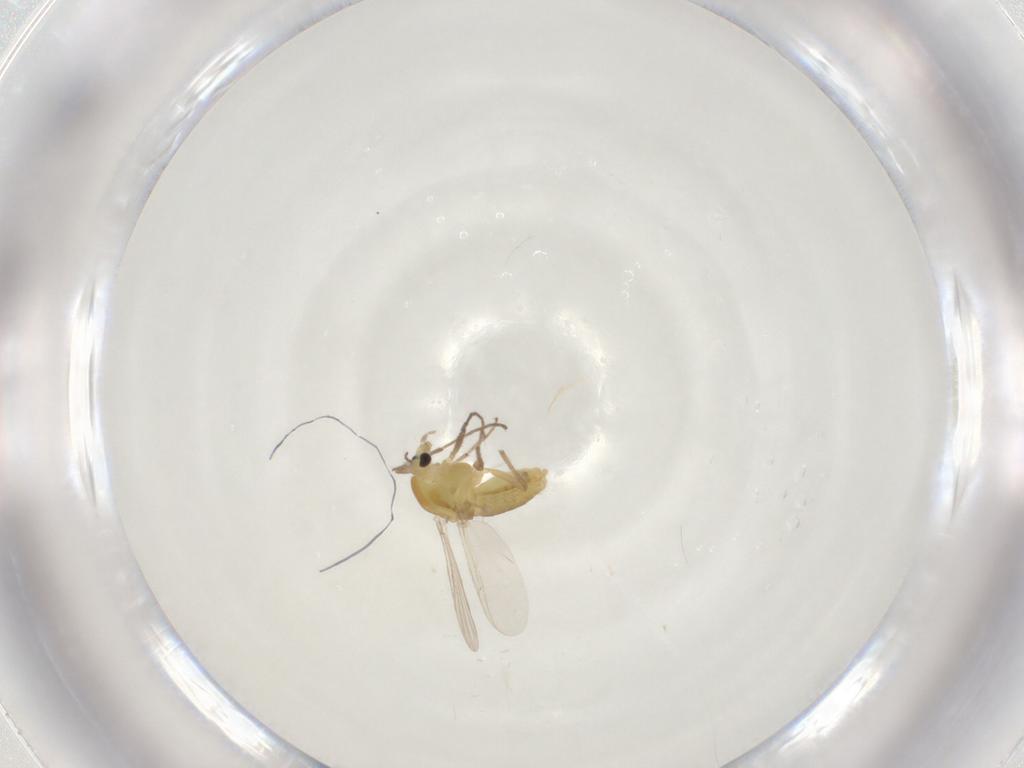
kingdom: Animalia
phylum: Arthropoda
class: Insecta
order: Diptera
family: Chironomidae
